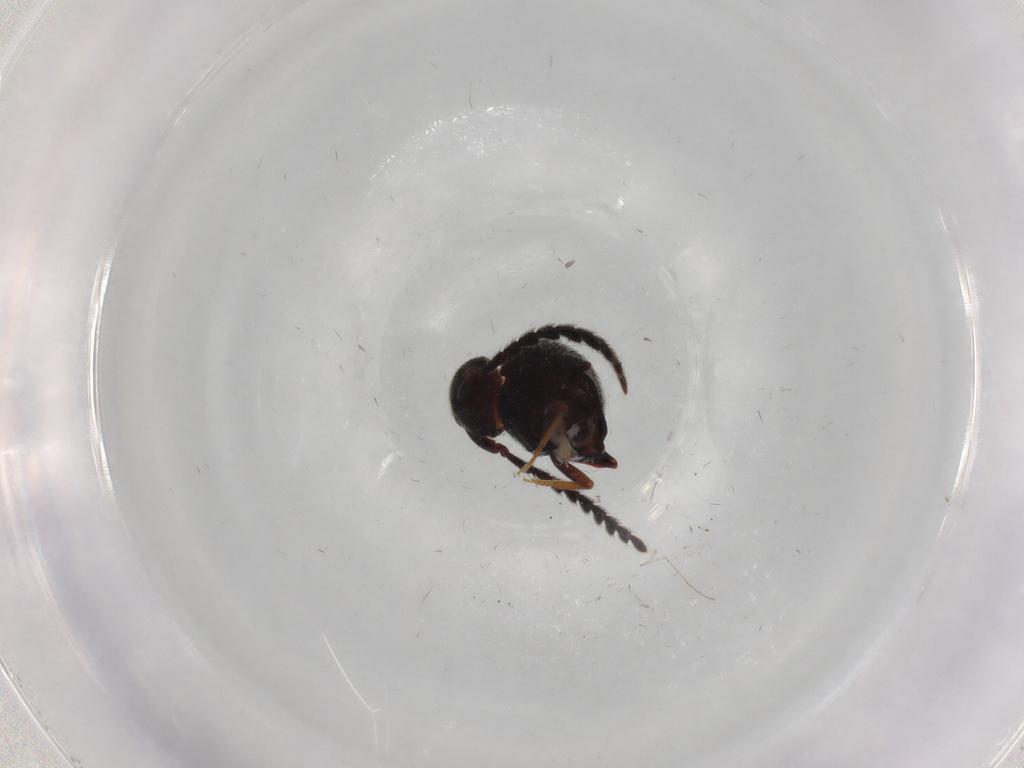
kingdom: Animalia
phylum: Arthropoda
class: Insecta
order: Coleoptera
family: Eucnemidae
